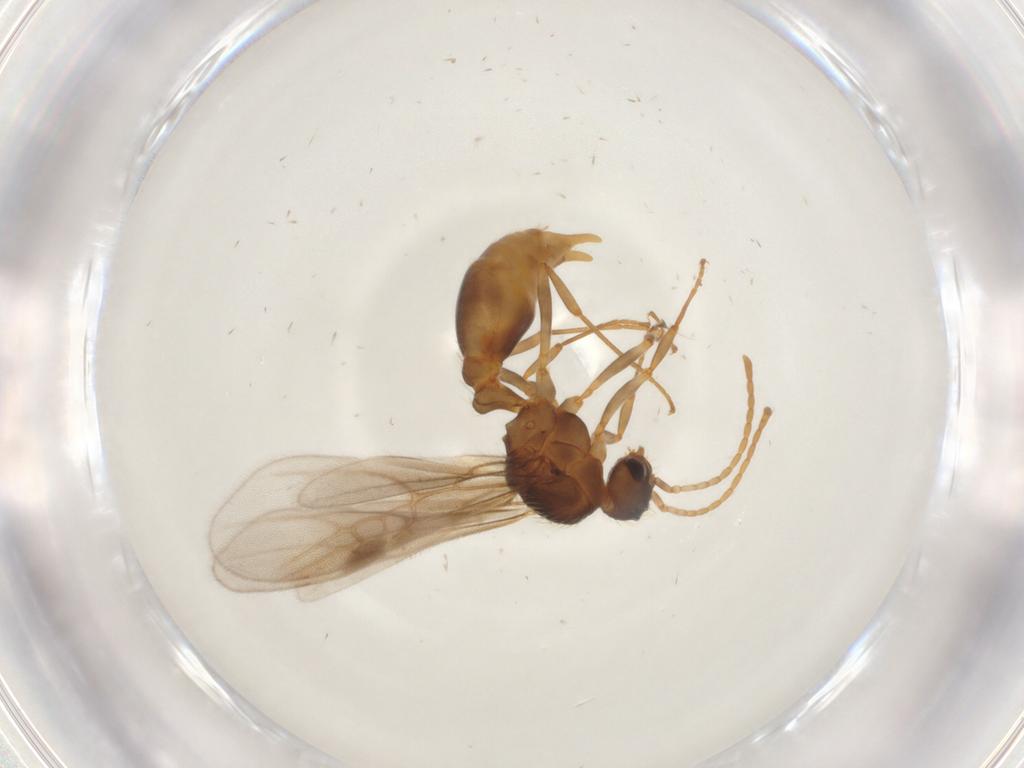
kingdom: Animalia
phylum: Arthropoda
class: Insecta
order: Hymenoptera
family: Formicidae
